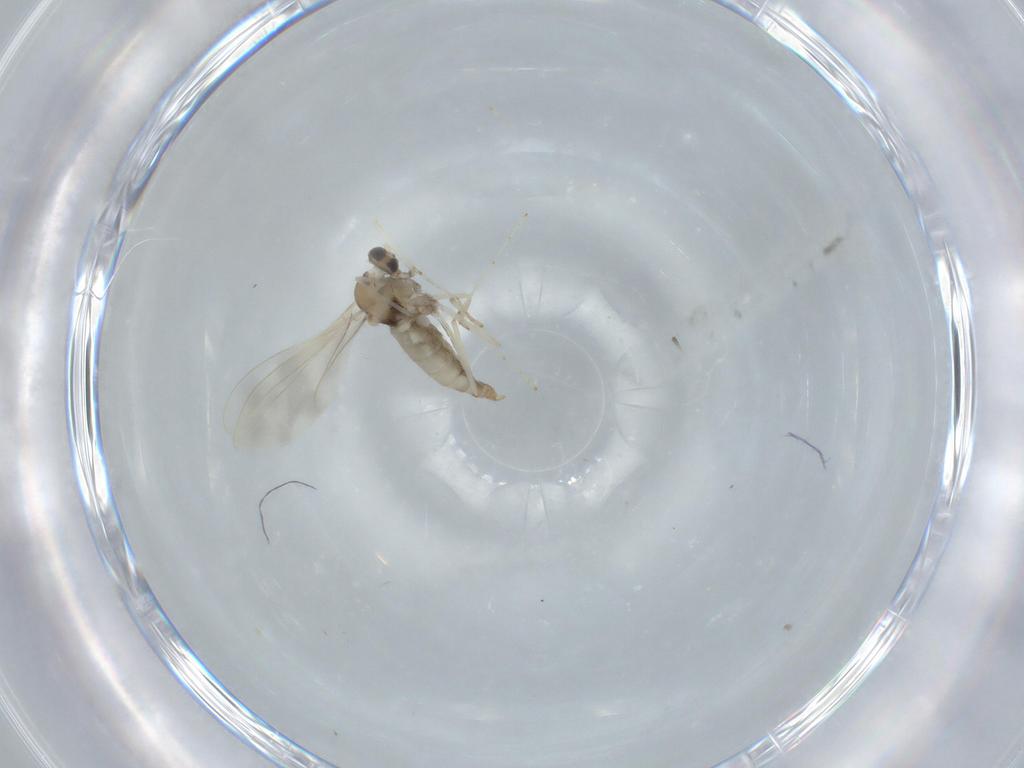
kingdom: Animalia
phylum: Arthropoda
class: Insecta
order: Diptera
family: Cecidomyiidae
